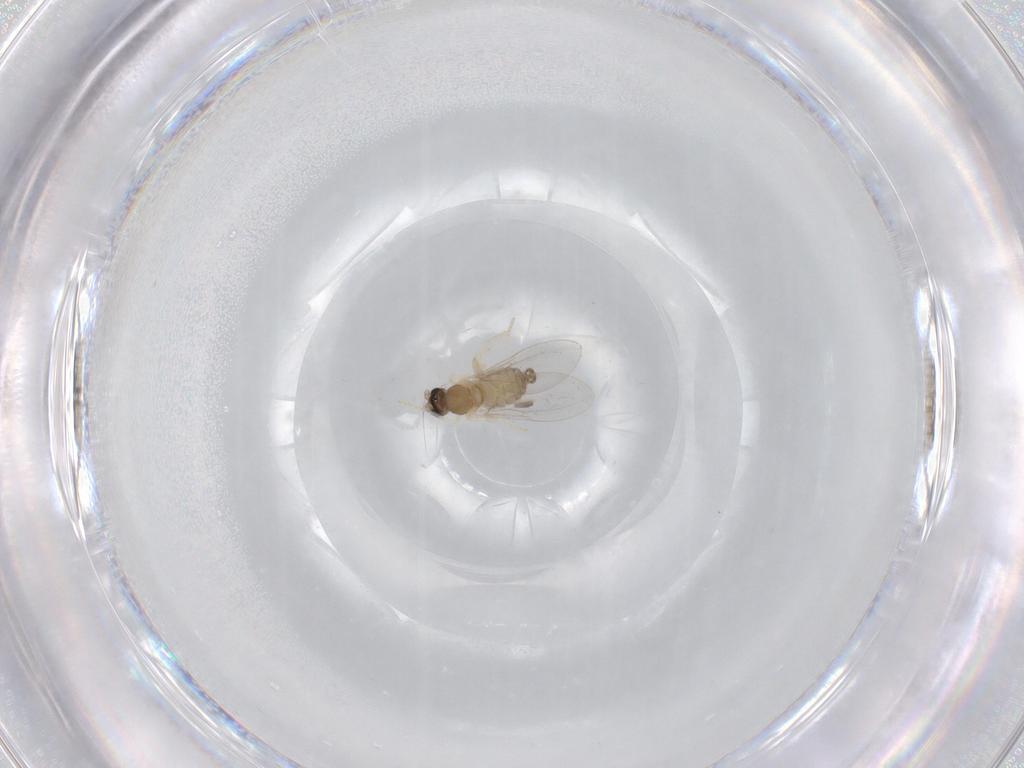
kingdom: Animalia
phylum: Arthropoda
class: Insecta
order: Diptera
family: Cecidomyiidae
